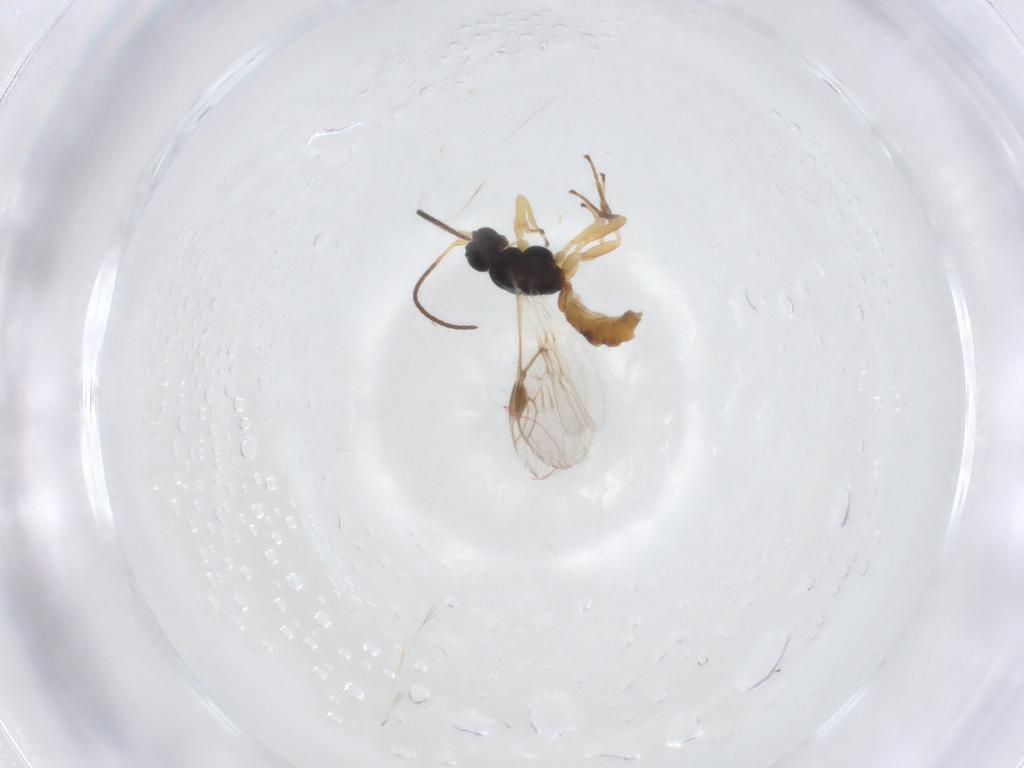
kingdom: Animalia
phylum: Arthropoda
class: Insecta
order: Hymenoptera
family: Braconidae
